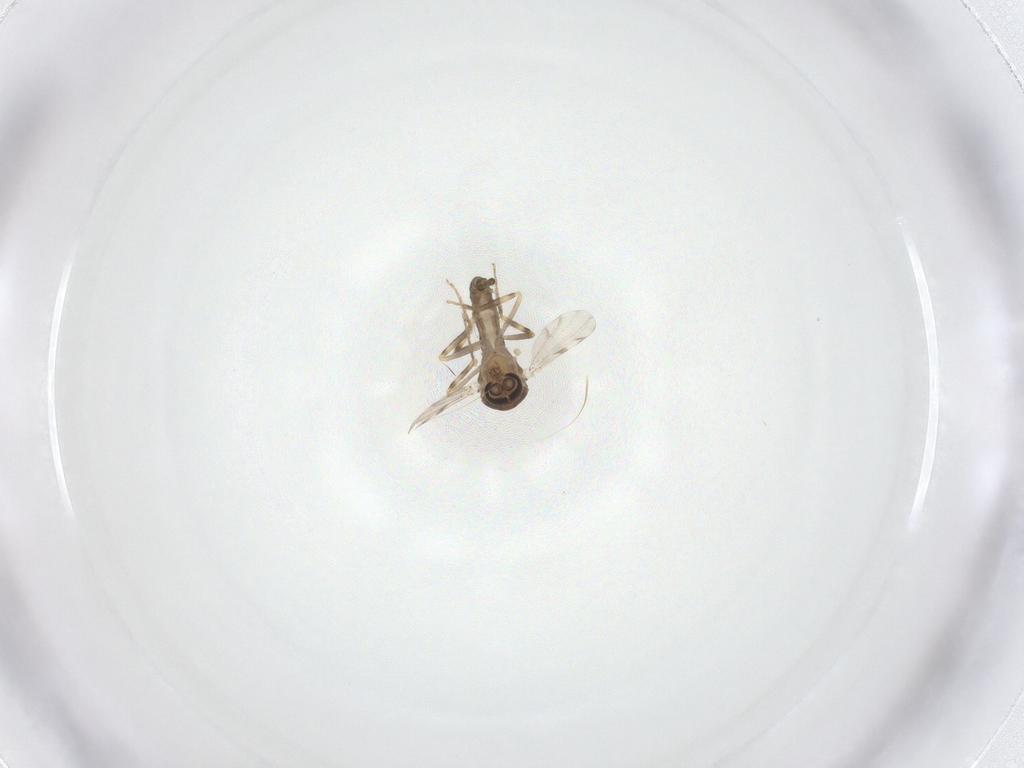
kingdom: Animalia
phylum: Arthropoda
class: Insecta
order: Diptera
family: Ceratopogonidae
